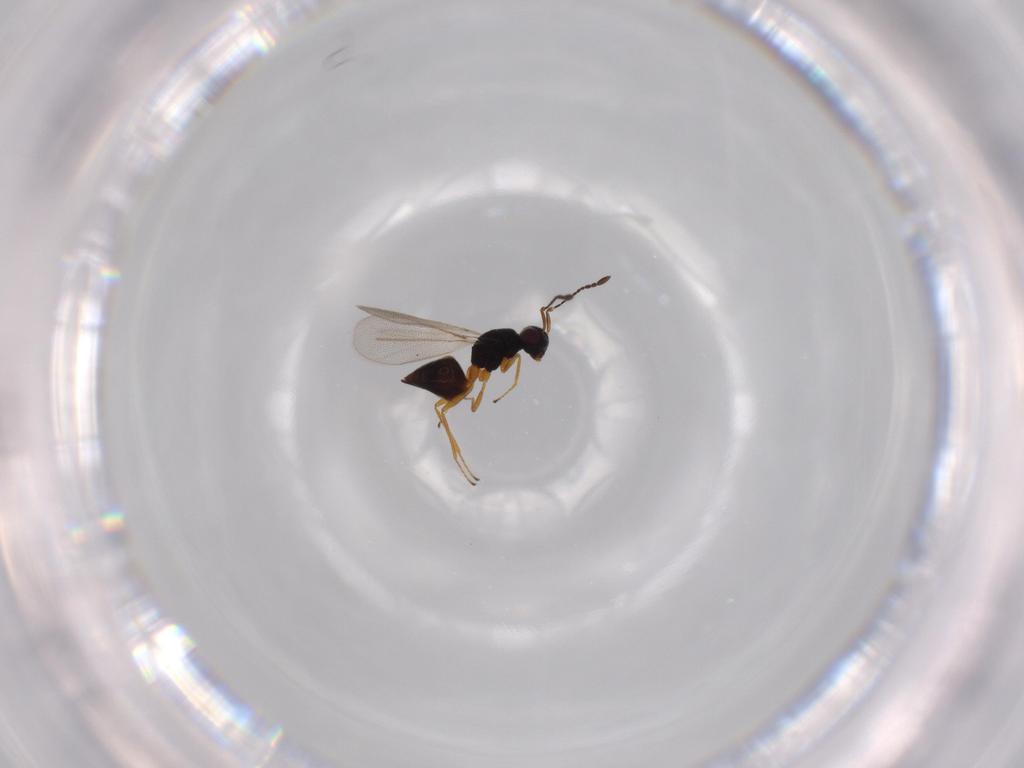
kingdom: Animalia
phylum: Arthropoda
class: Insecta
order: Hymenoptera
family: Mymaridae
